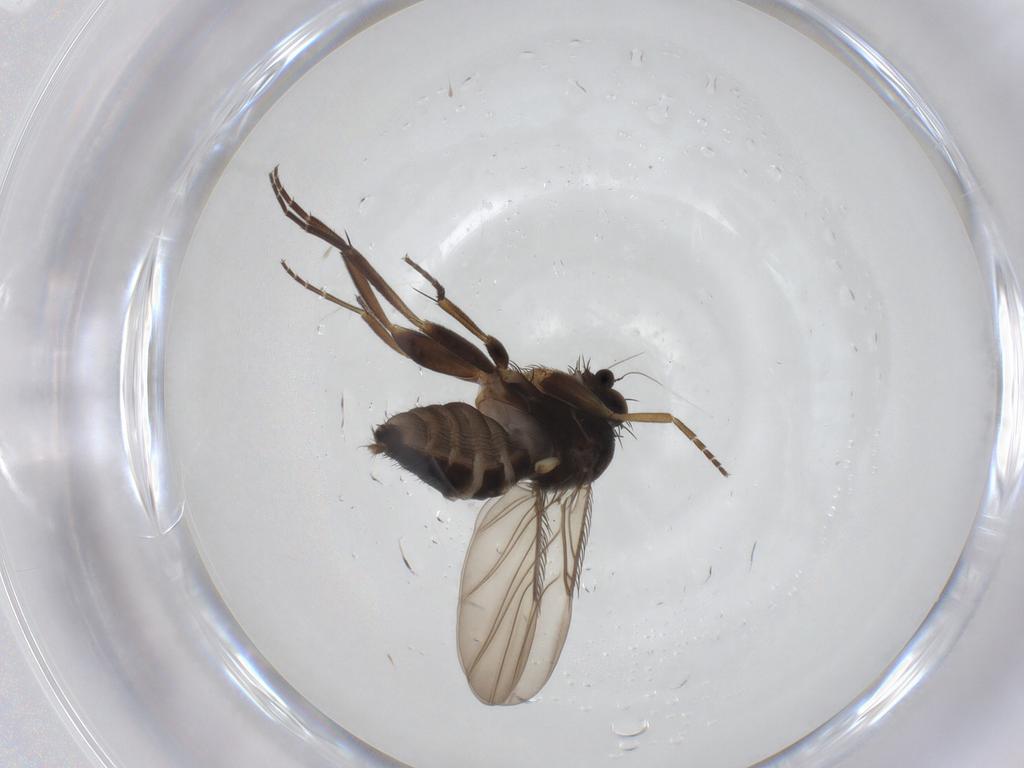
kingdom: Animalia
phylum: Arthropoda
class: Insecta
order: Diptera
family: Phoridae
